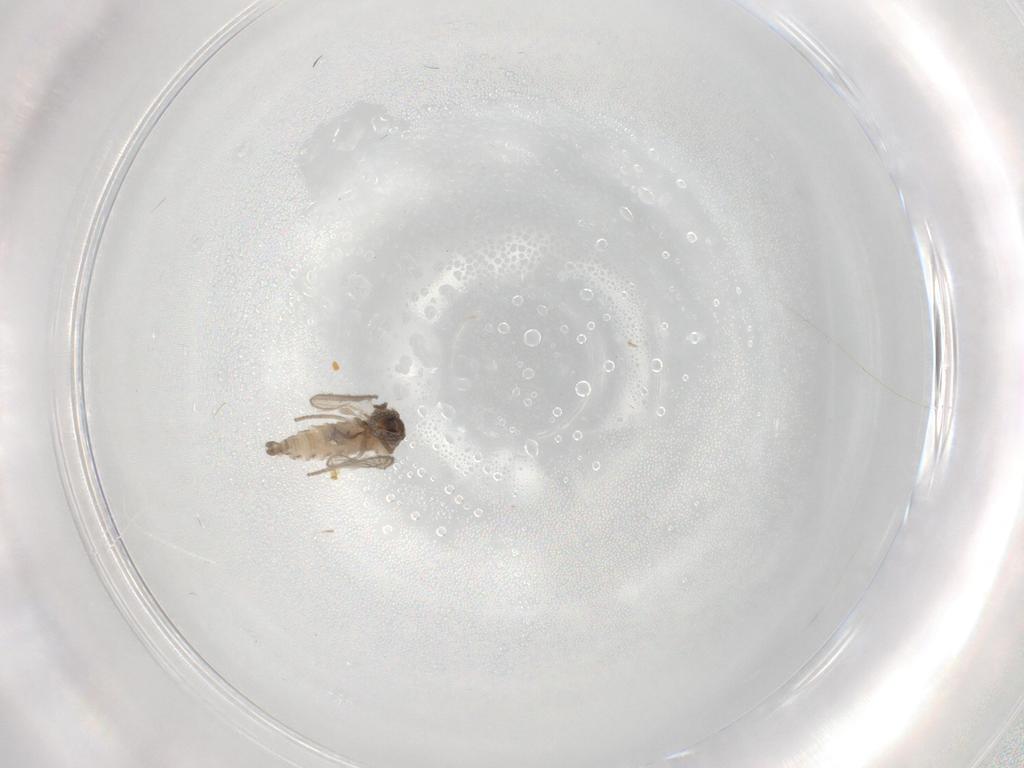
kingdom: Animalia
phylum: Arthropoda
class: Insecta
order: Diptera
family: Psychodidae
